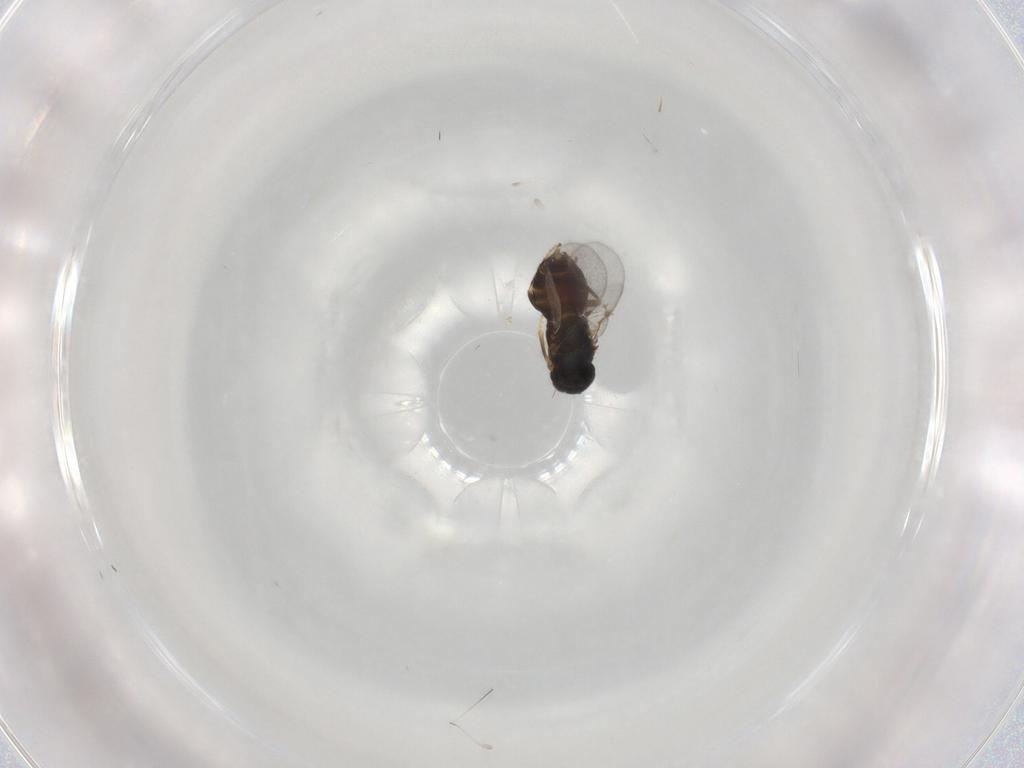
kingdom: Animalia
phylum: Arthropoda
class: Insecta
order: Hymenoptera
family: Encyrtidae
